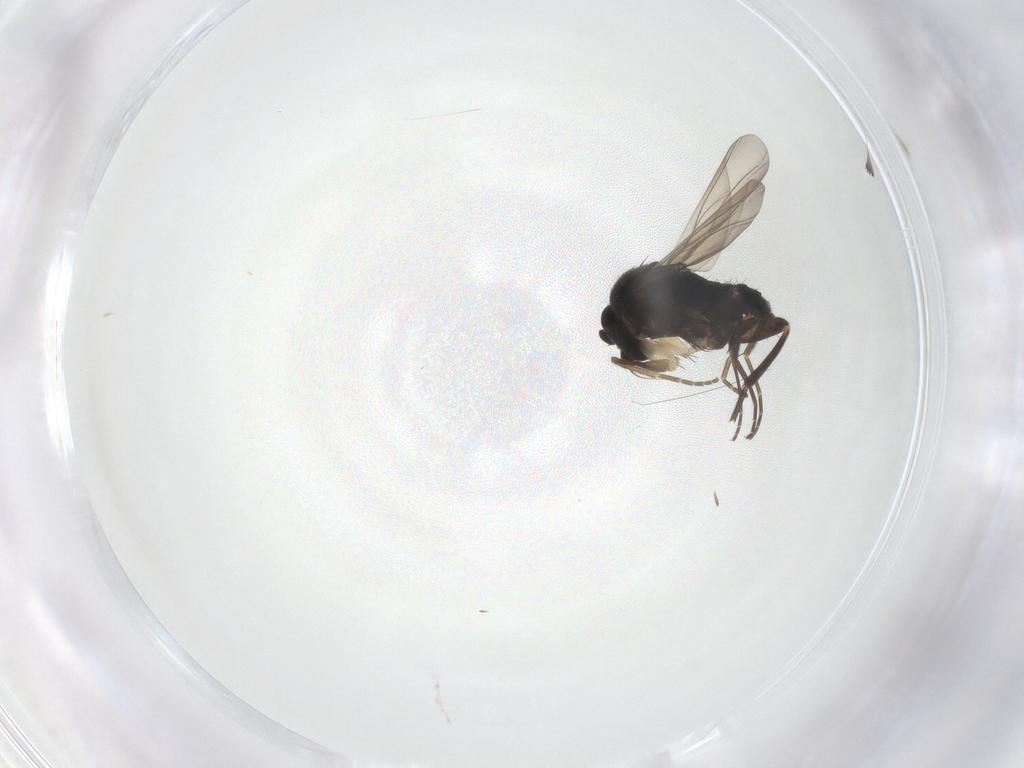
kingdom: Animalia
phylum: Arthropoda
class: Insecta
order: Diptera
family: Phoridae
